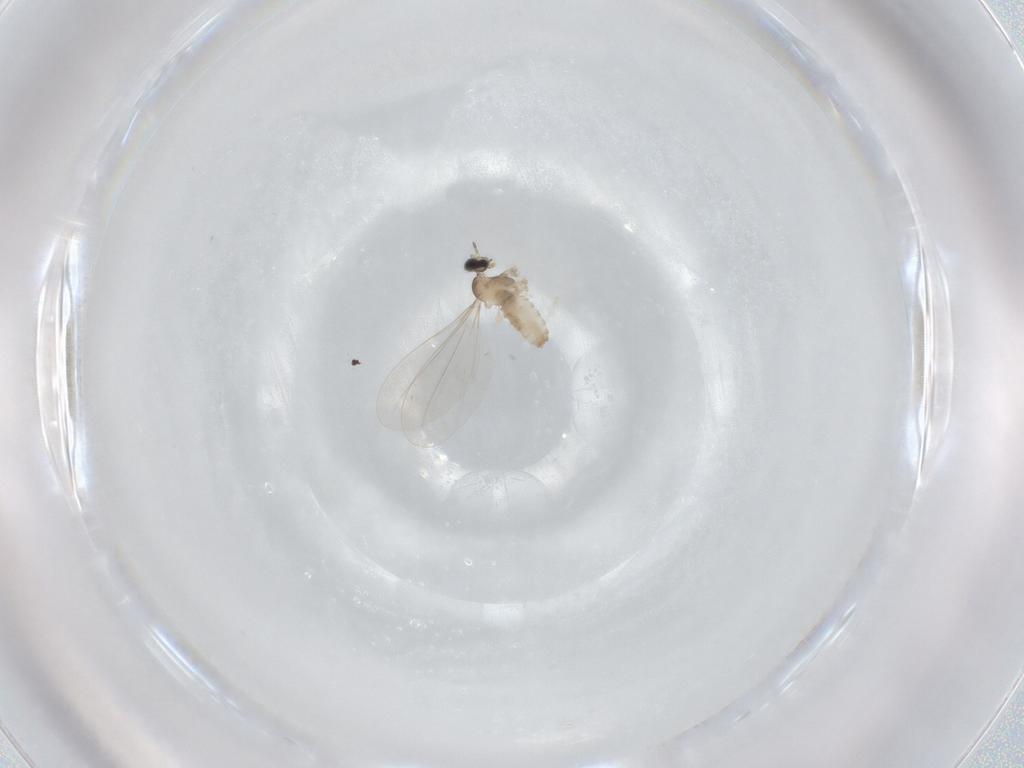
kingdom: Animalia
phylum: Arthropoda
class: Insecta
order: Diptera
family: Cecidomyiidae
